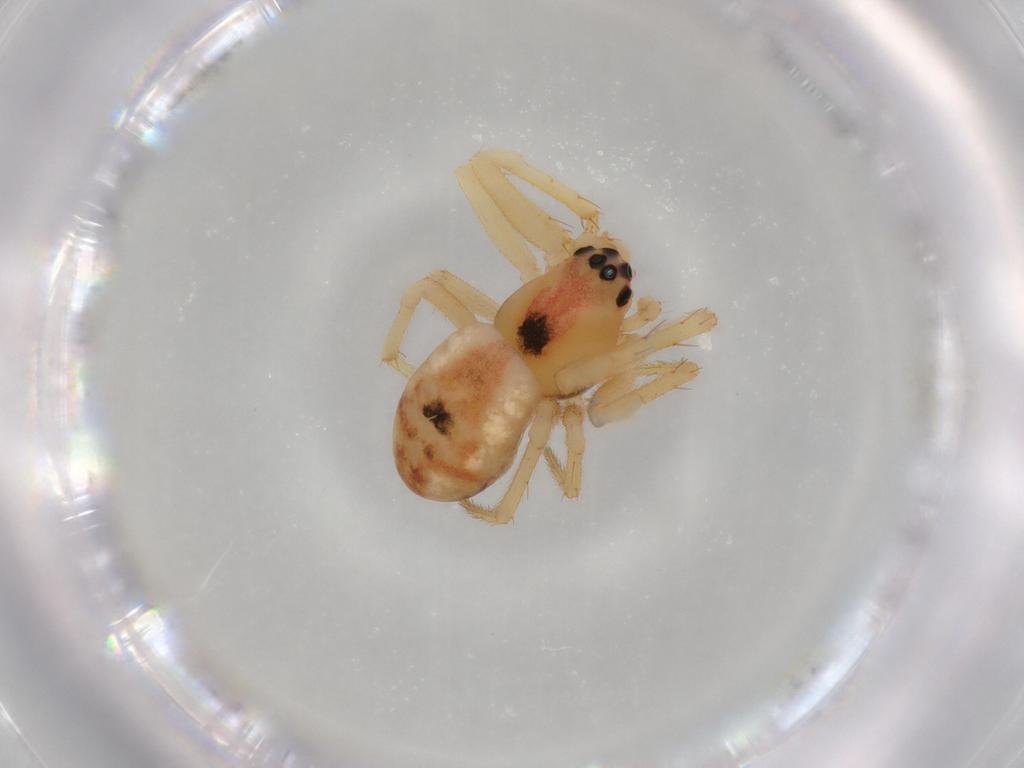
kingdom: Animalia
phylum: Arthropoda
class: Arachnida
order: Araneae
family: Araneidae
